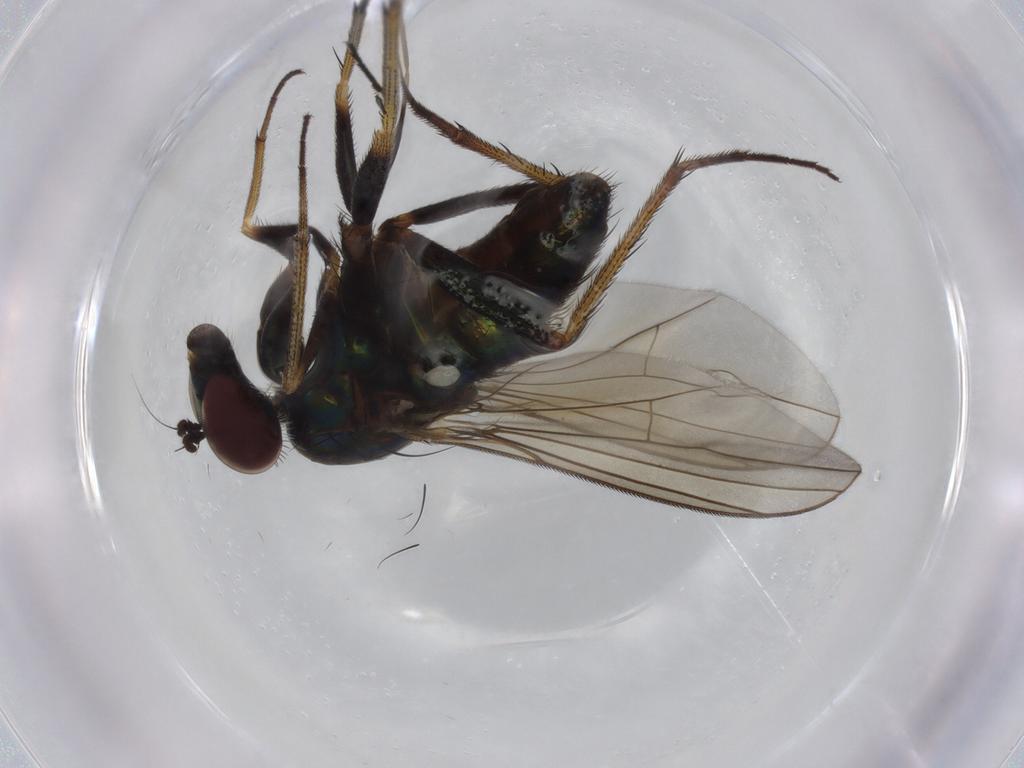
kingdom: Animalia
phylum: Arthropoda
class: Insecta
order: Diptera
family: Dolichopodidae
